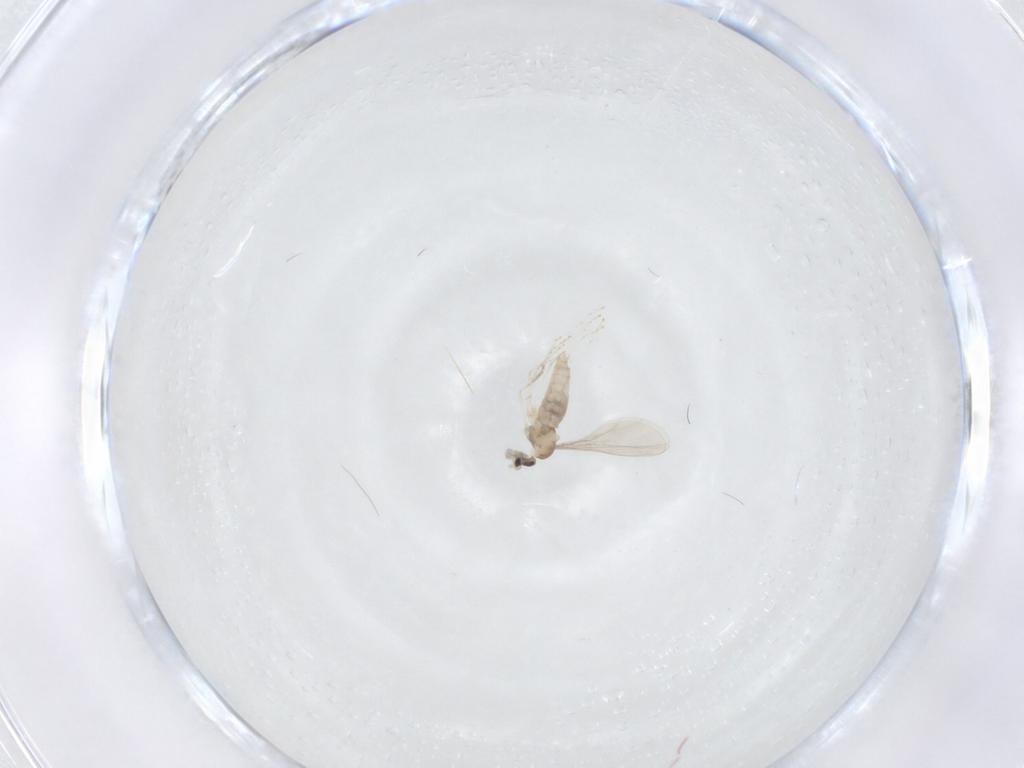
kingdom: Animalia
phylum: Arthropoda
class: Insecta
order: Diptera
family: Cecidomyiidae
